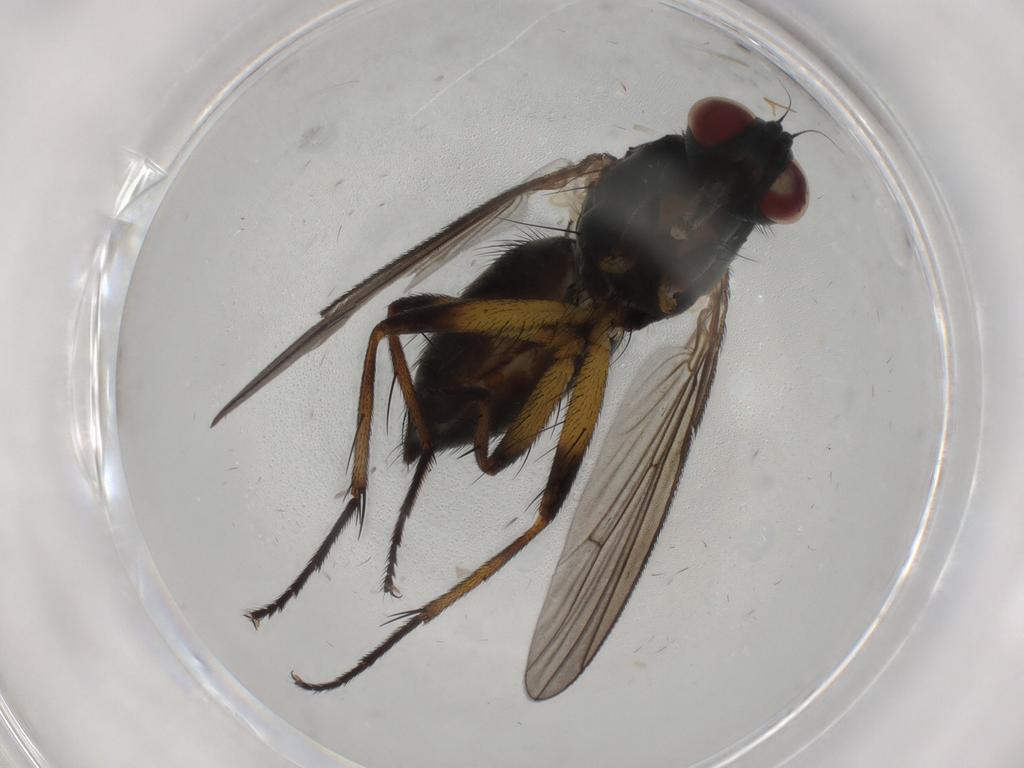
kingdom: Animalia
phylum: Arthropoda
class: Insecta
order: Diptera
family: Muscidae
